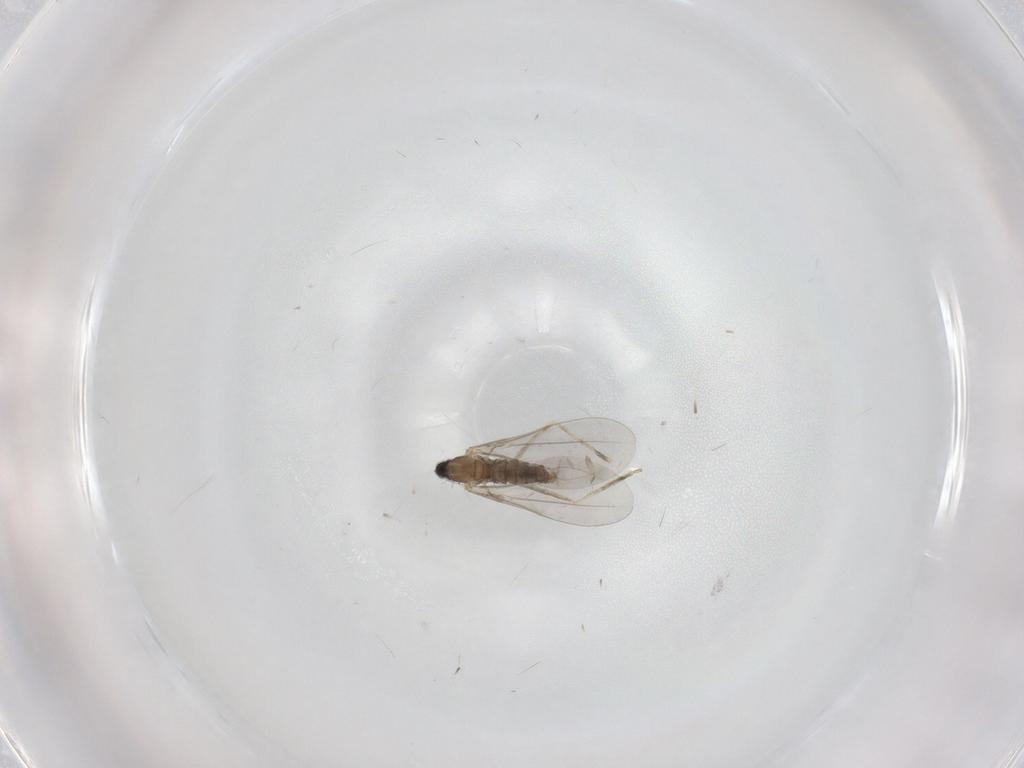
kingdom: Animalia
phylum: Arthropoda
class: Insecta
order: Diptera
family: Cecidomyiidae
